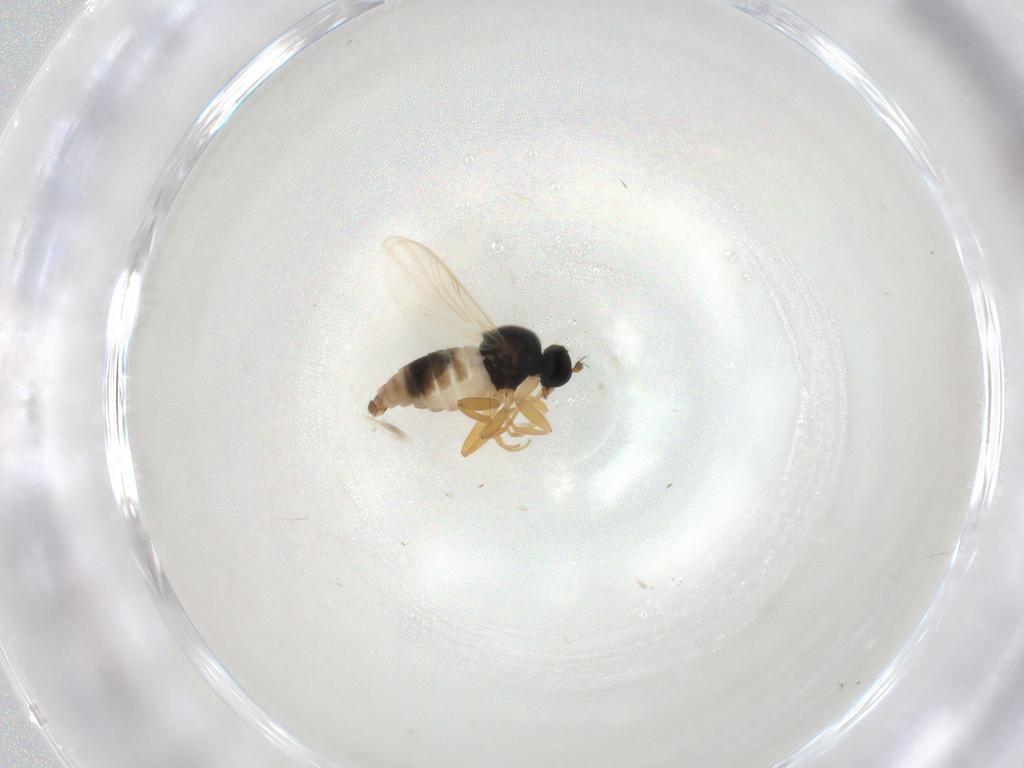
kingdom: Animalia
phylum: Arthropoda
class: Insecta
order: Diptera
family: Hybotidae
